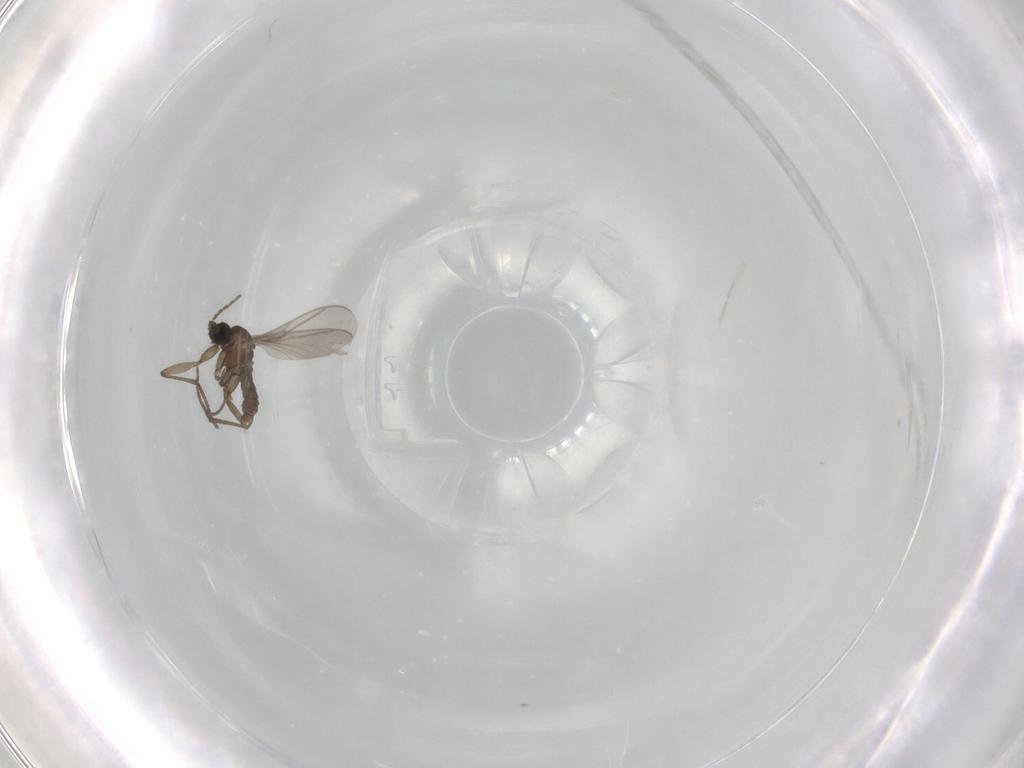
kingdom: Animalia
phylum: Arthropoda
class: Insecta
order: Diptera
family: Sciaridae
